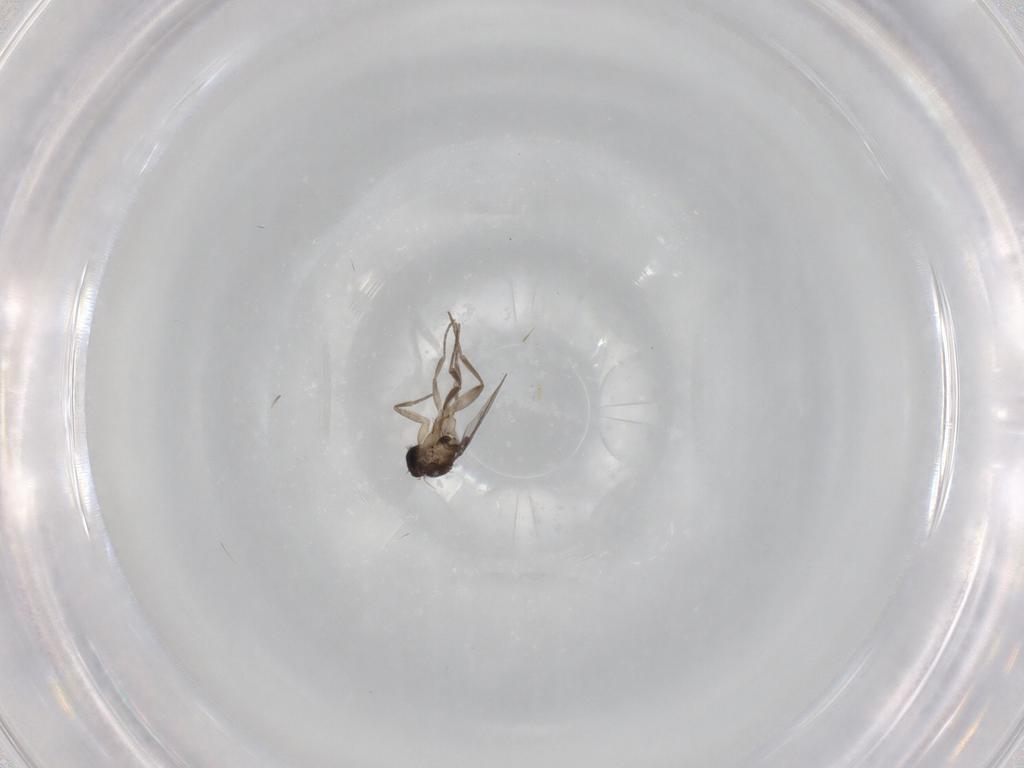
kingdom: Animalia
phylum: Arthropoda
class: Insecta
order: Diptera
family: Phoridae
